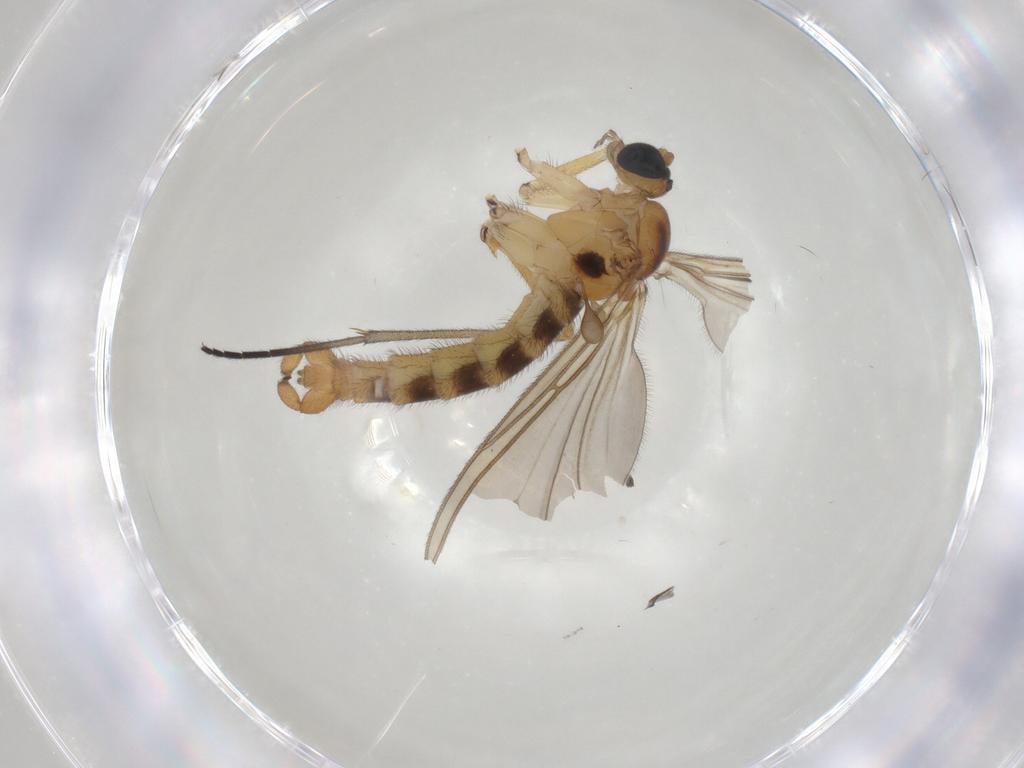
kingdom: Animalia
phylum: Arthropoda
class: Insecta
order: Diptera
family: Sciaridae
